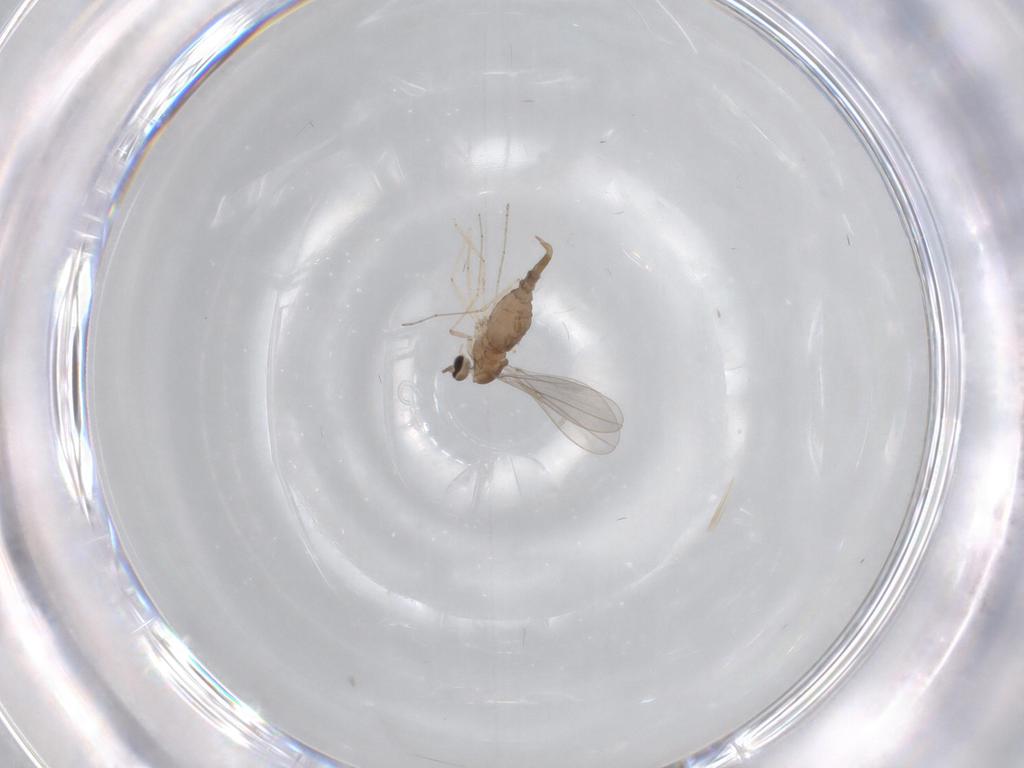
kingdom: Animalia
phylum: Arthropoda
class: Insecta
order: Diptera
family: Cecidomyiidae
